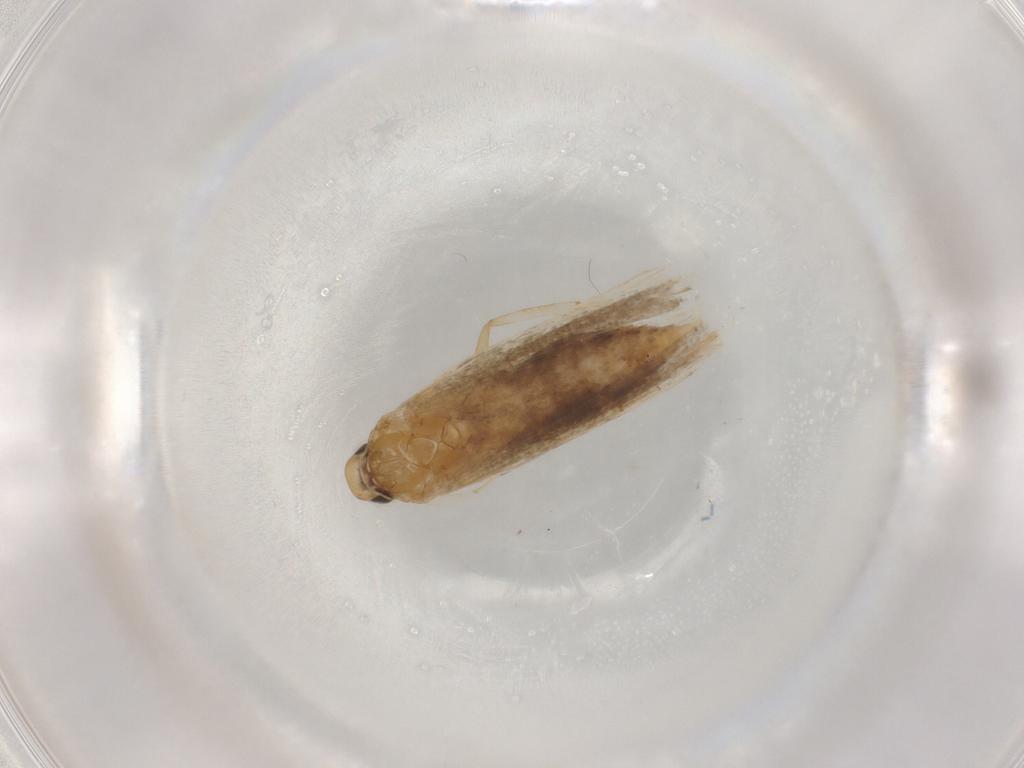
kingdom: Animalia
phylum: Arthropoda
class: Insecta
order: Lepidoptera
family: Gelechiidae
